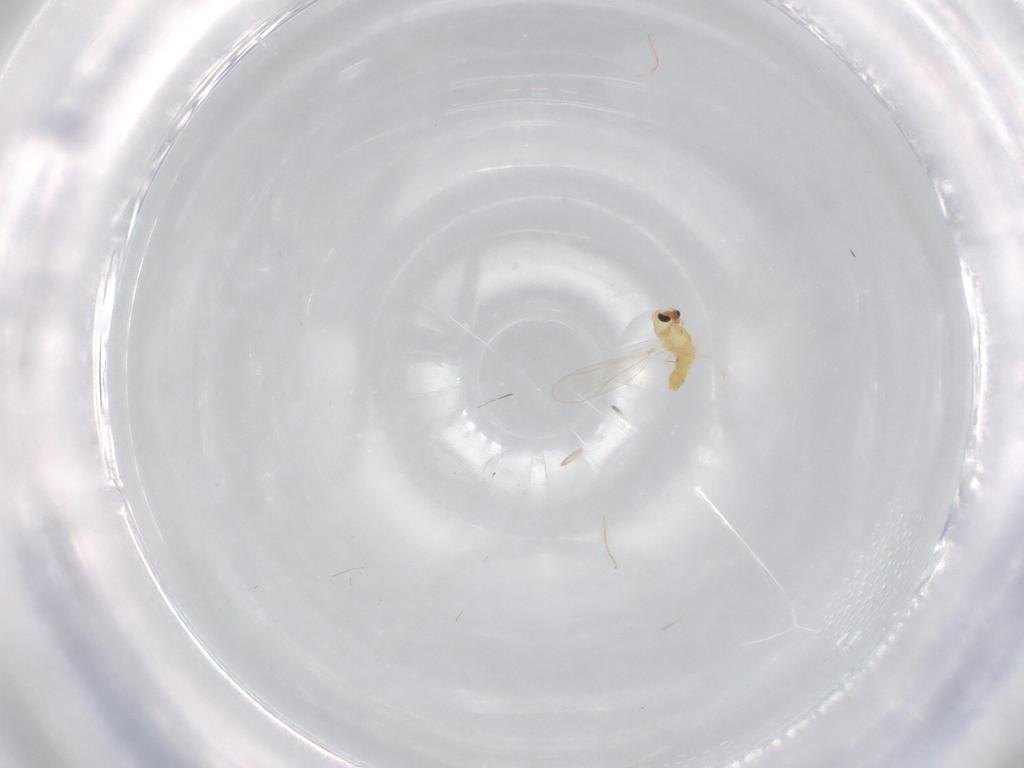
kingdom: Animalia
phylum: Arthropoda
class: Insecta
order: Diptera
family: Chironomidae
